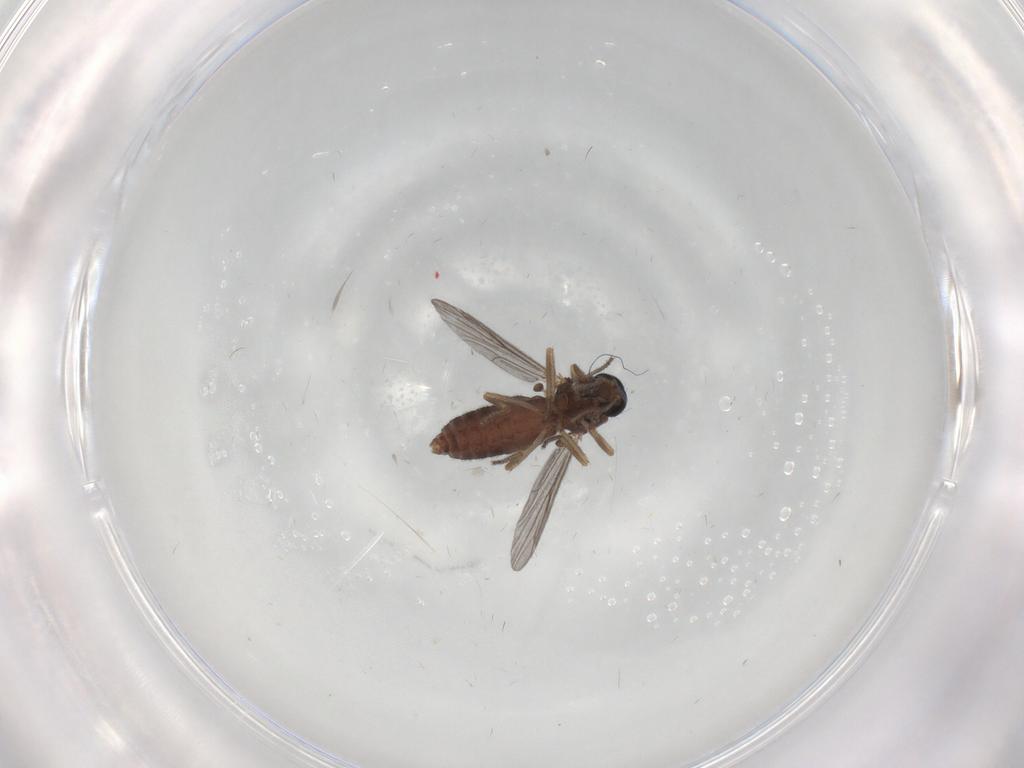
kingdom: Animalia
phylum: Arthropoda
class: Insecta
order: Diptera
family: Ceratopogonidae
